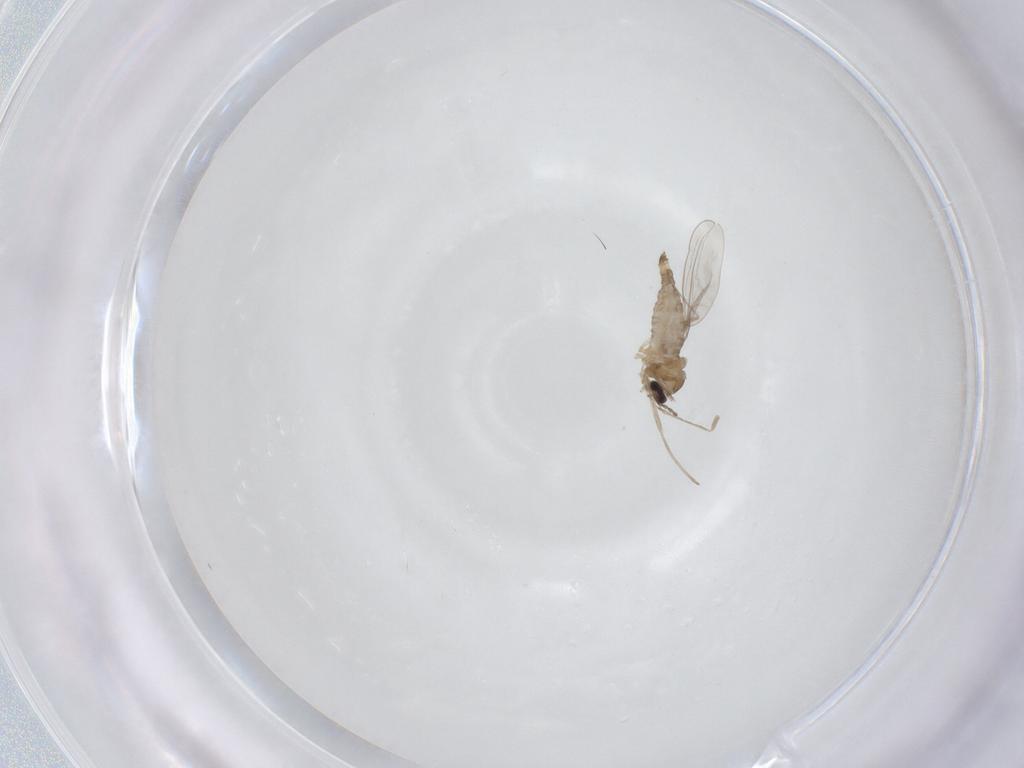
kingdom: Animalia
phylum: Arthropoda
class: Insecta
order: Diptera
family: Cecidomyiidae
